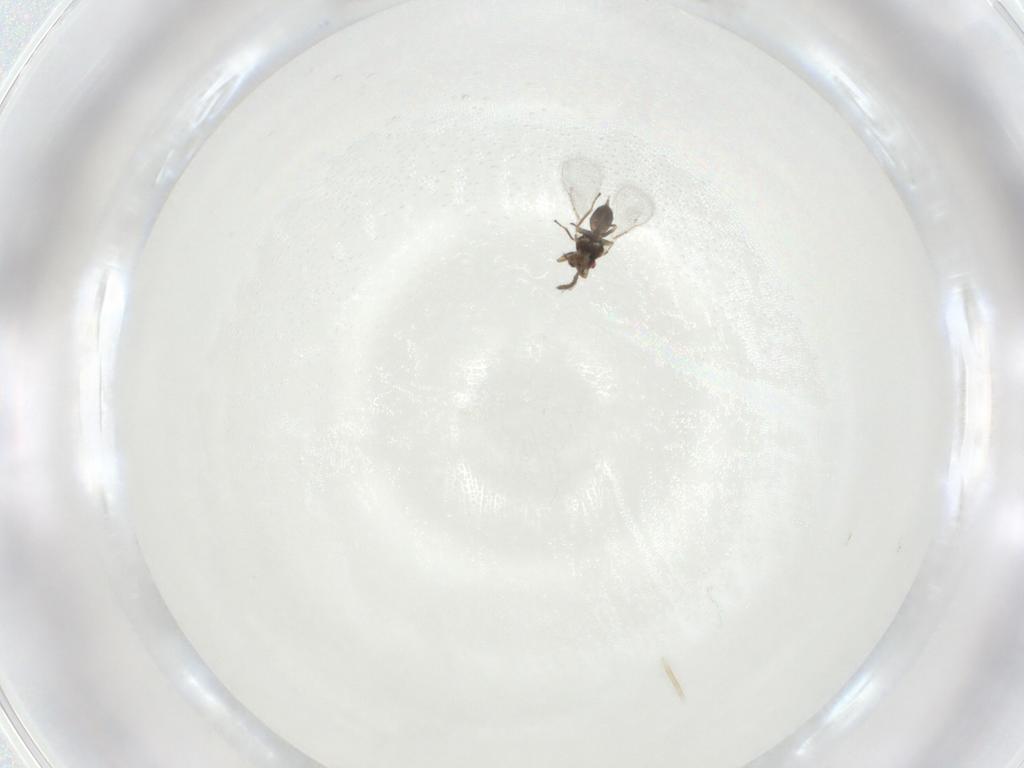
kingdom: Animalia
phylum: Arthropoda
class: Insecta
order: Hymenoptera
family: Eulophidae
